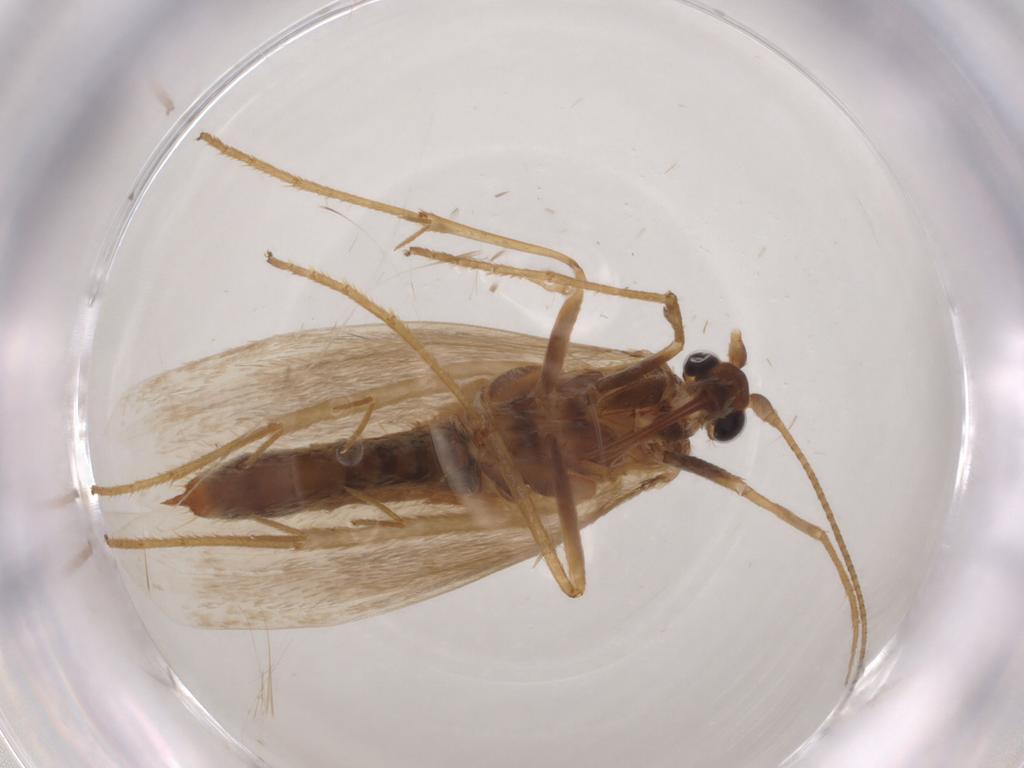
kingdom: Animalia
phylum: Arthropoda
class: Insecta
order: Lepidoptera
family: Adelidae
